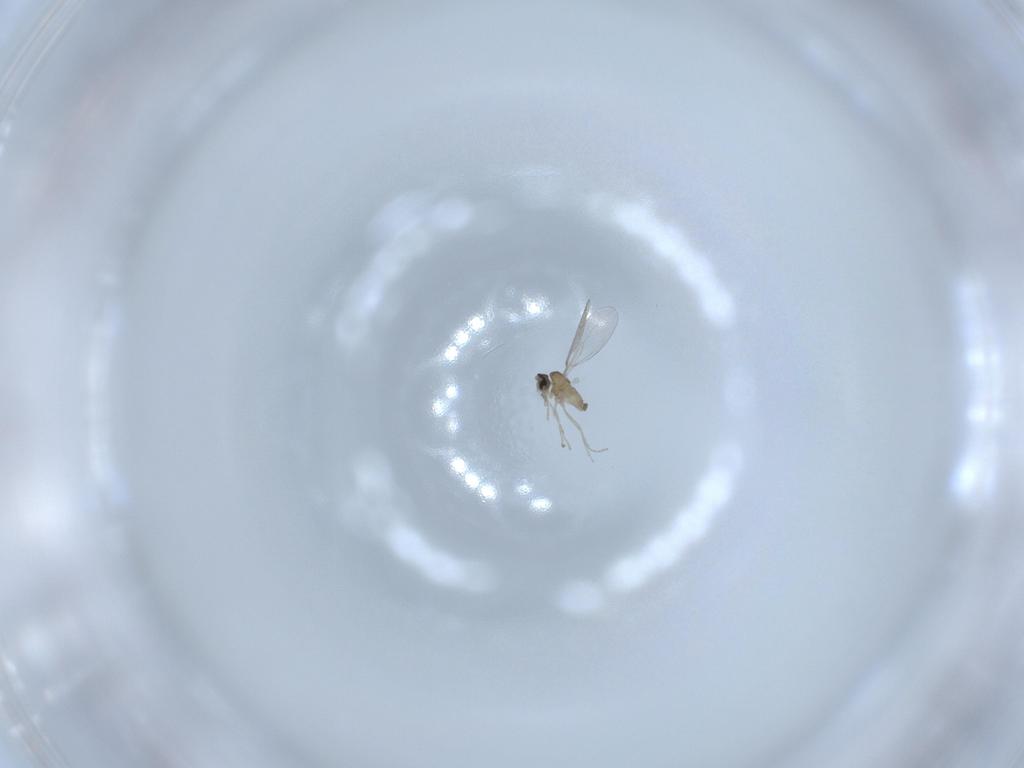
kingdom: Animalia
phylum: Arthropoda
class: Insecta
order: Diptera
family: Cecidomyiidae
